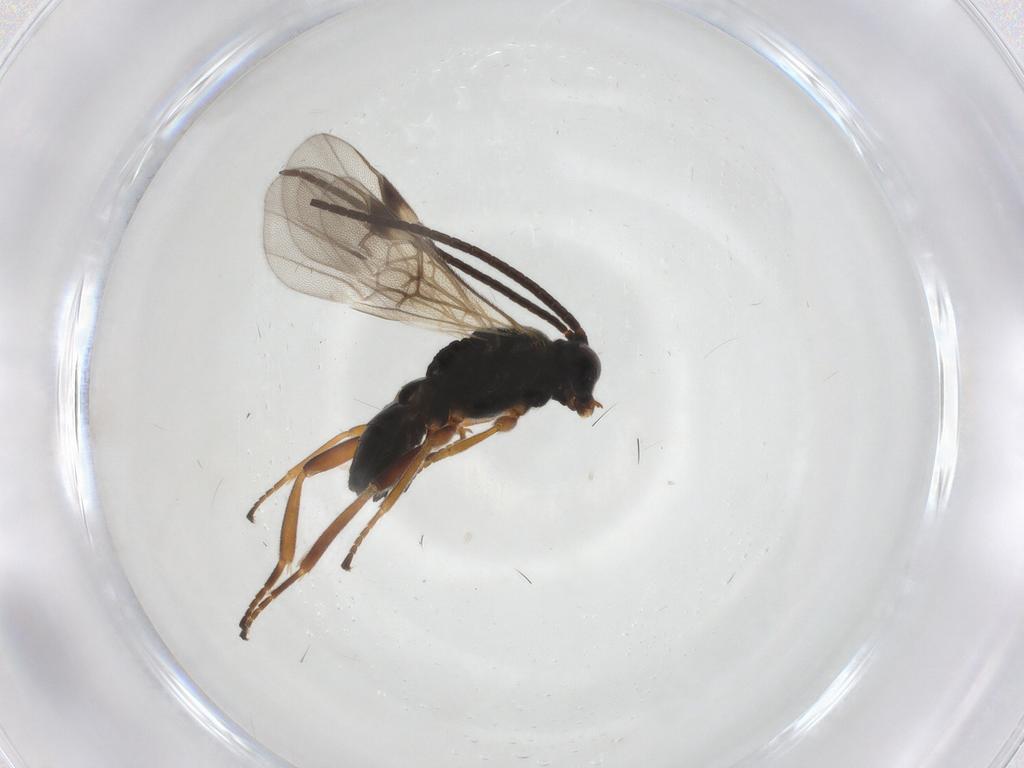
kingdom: Animalia
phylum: Arthropoda
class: Insecta
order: Hymenoptera
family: Braconidae
